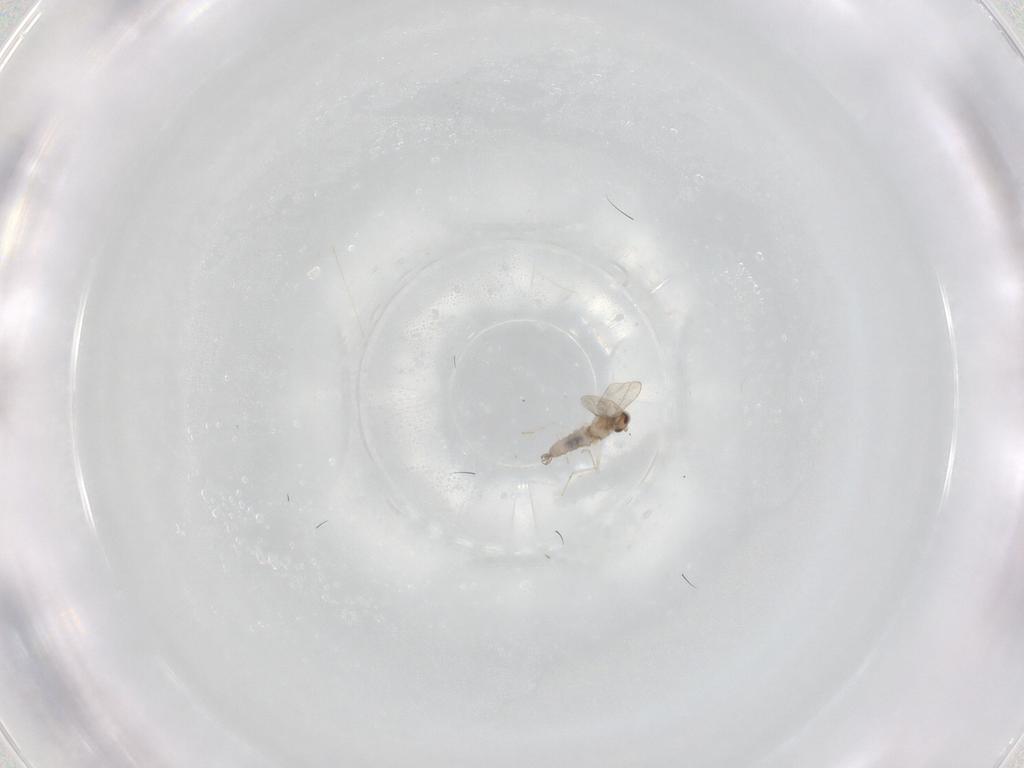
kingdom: Animalia
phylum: Arthropoda
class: Insecta
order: Diptera
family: Cecidomyiidae
